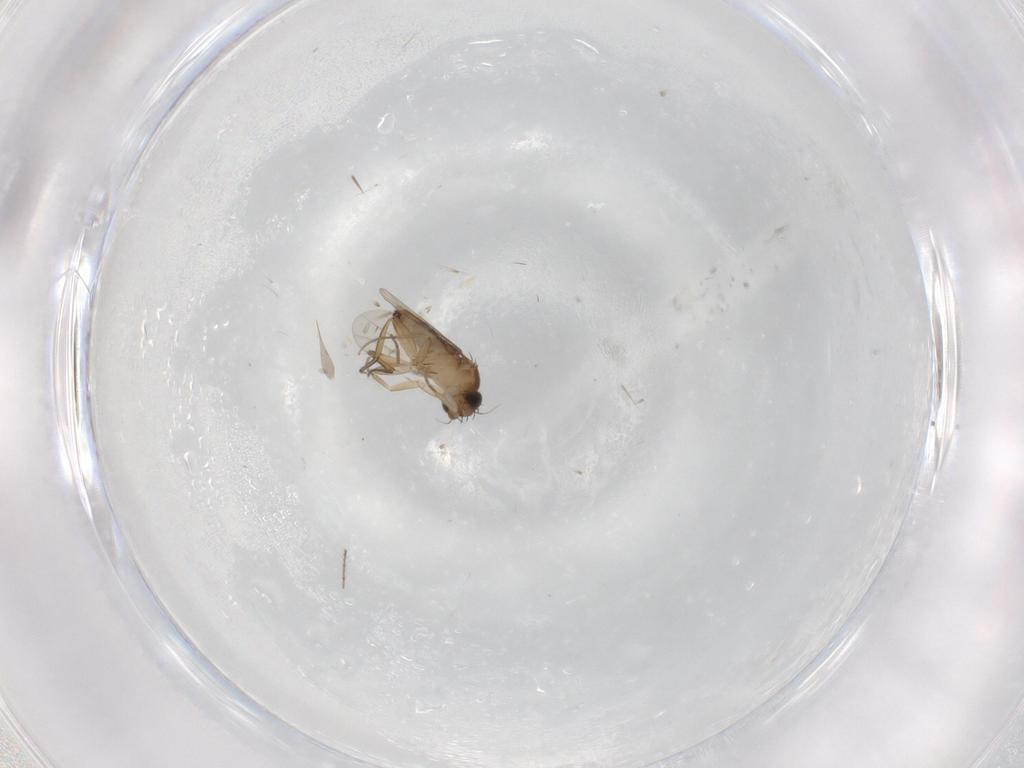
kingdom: Animalia
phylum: Arthropoda
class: Insecta
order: Diptera
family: Phoridae
